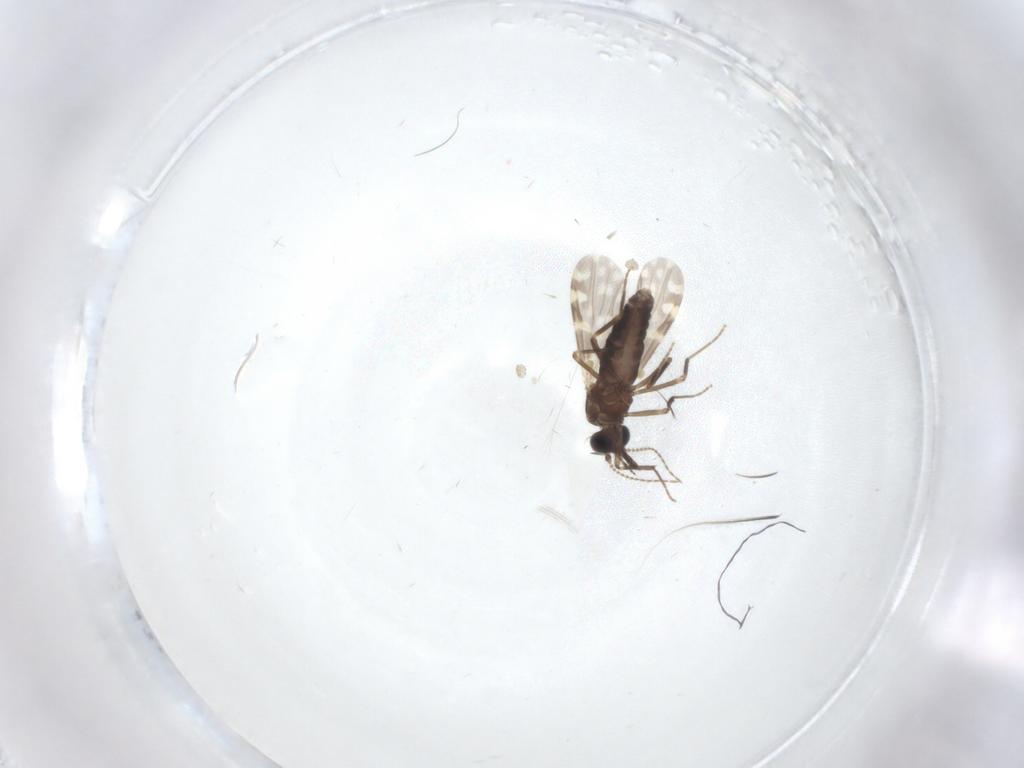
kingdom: Animalia
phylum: Arthropoda
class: Insecta
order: Diptera
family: Ceratopogonidae
